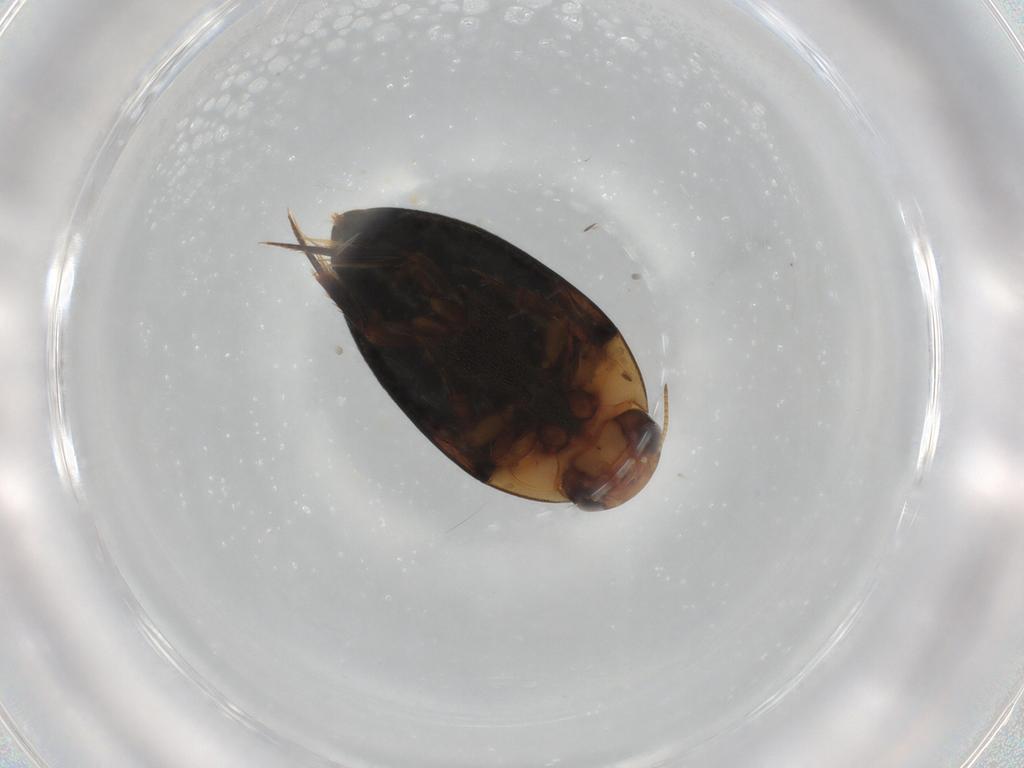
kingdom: Animalia
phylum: Arthropoda
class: Insecta
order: Coleoptera
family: Noteridae
